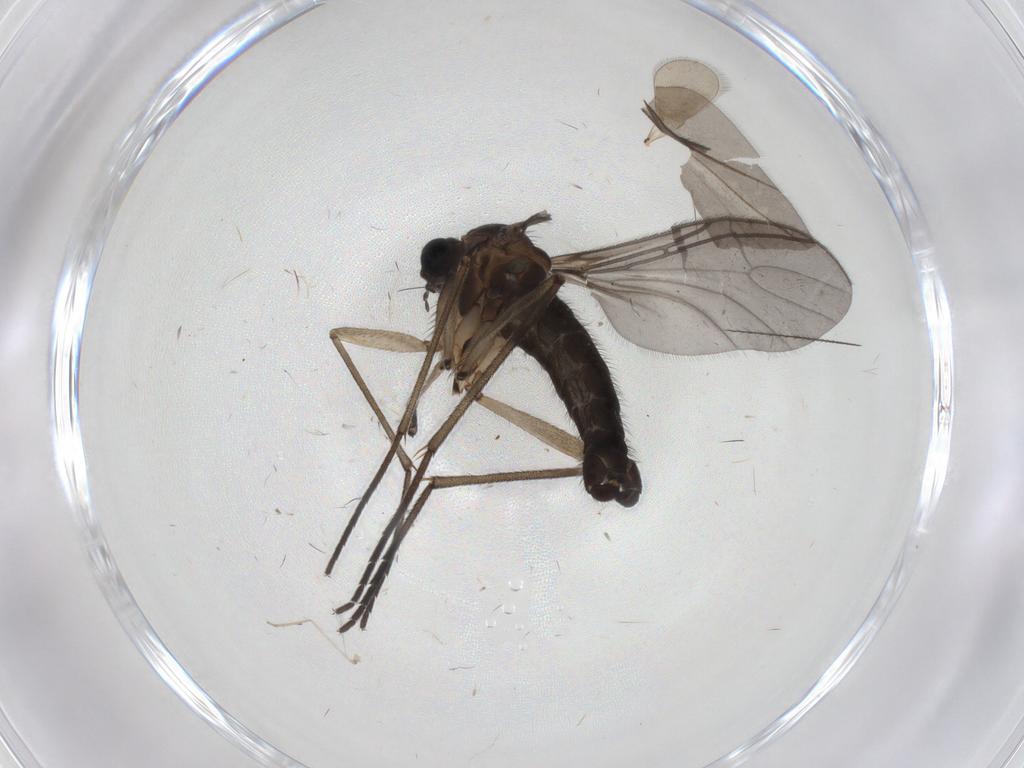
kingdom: Animalia
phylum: Arthropoda
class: Insecta
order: Diptera
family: Sciaridae
